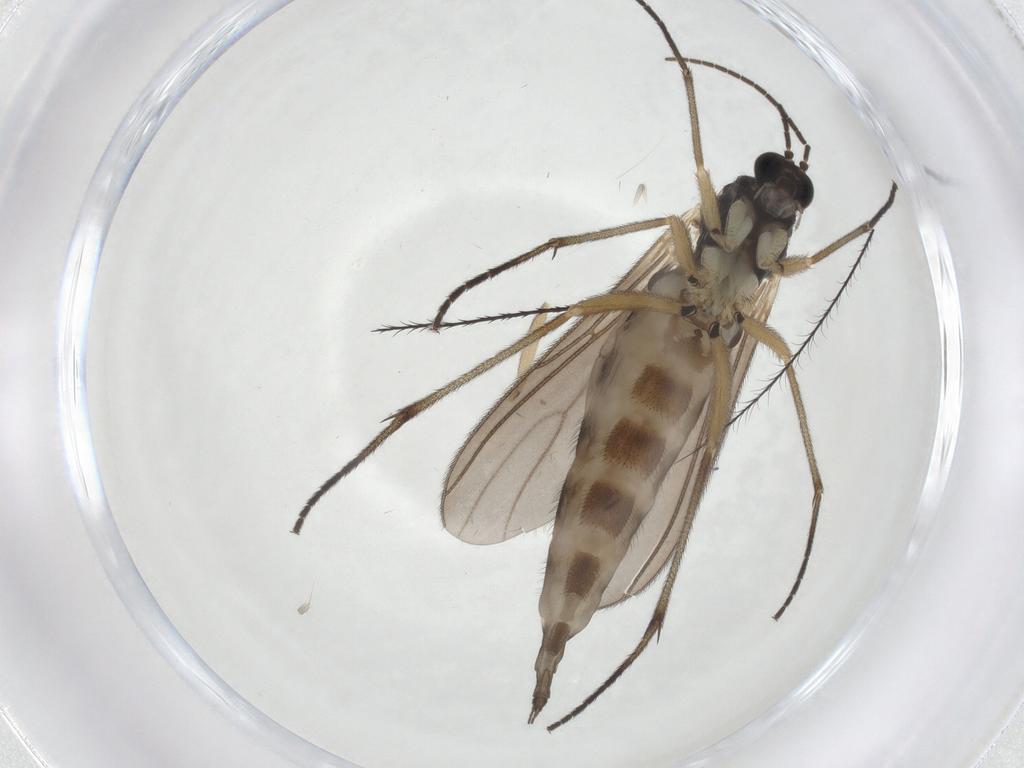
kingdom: Animalia
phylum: Arthropoda
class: Insecta
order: Diptera
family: Sciaridae
